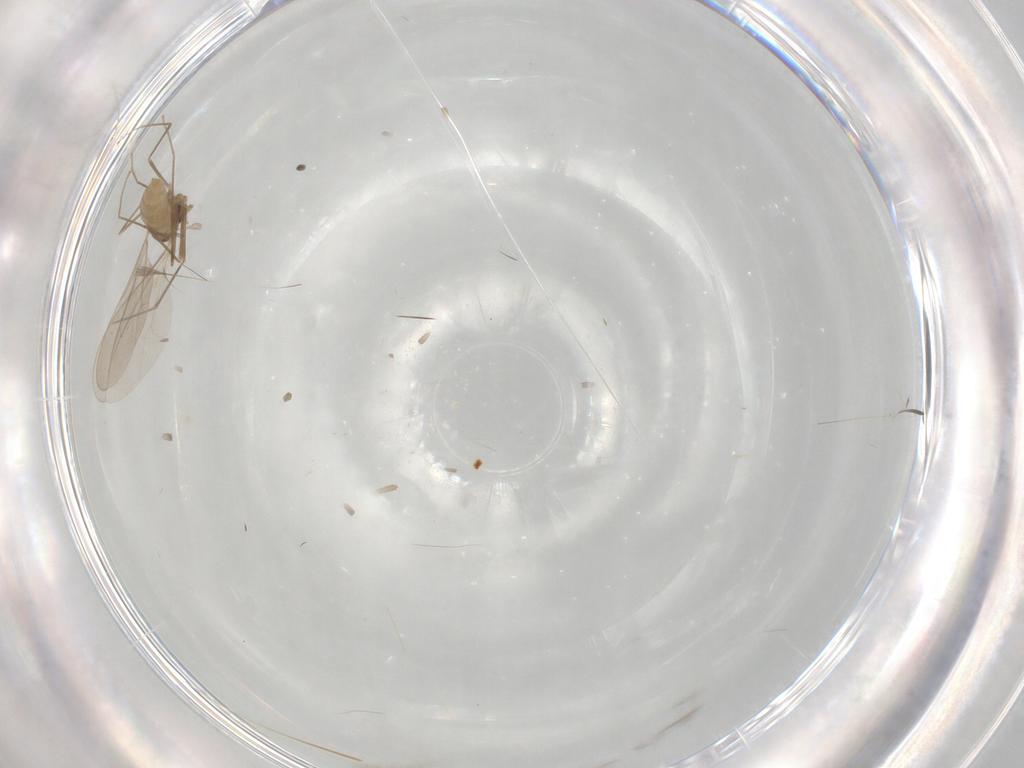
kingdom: Animalia
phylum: Arthropoda
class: Insecta
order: Diptera
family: Cecidomyiidae
